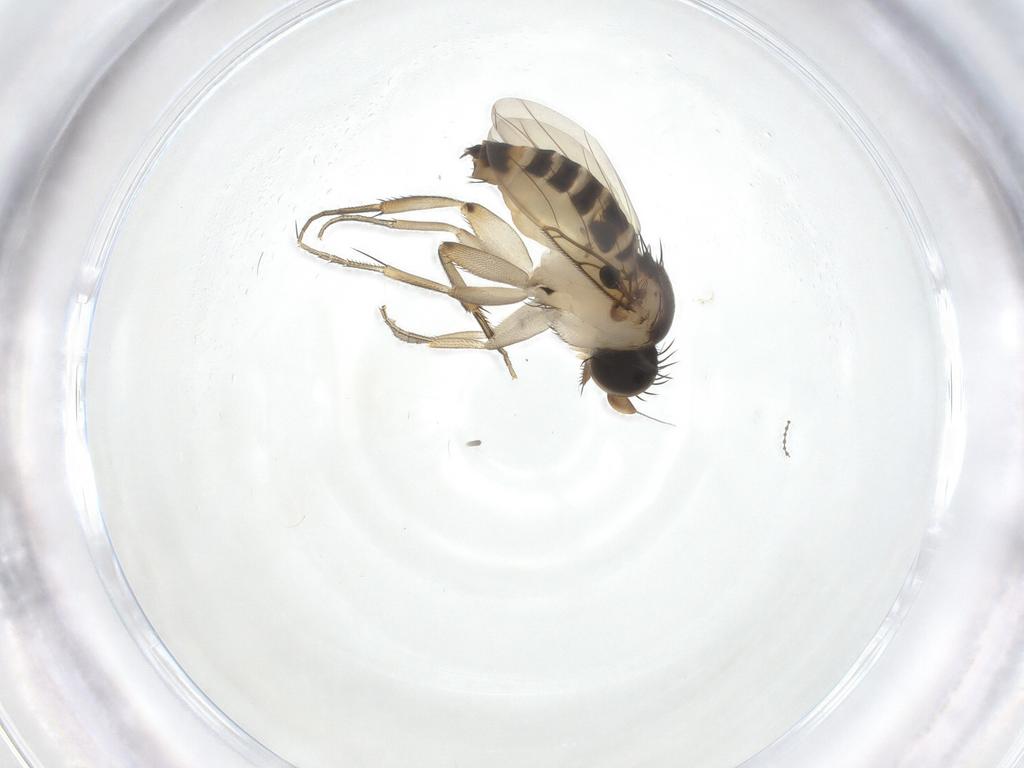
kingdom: Animalia
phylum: Arthropoda
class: Insecta
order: Diptera
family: Phoridae
